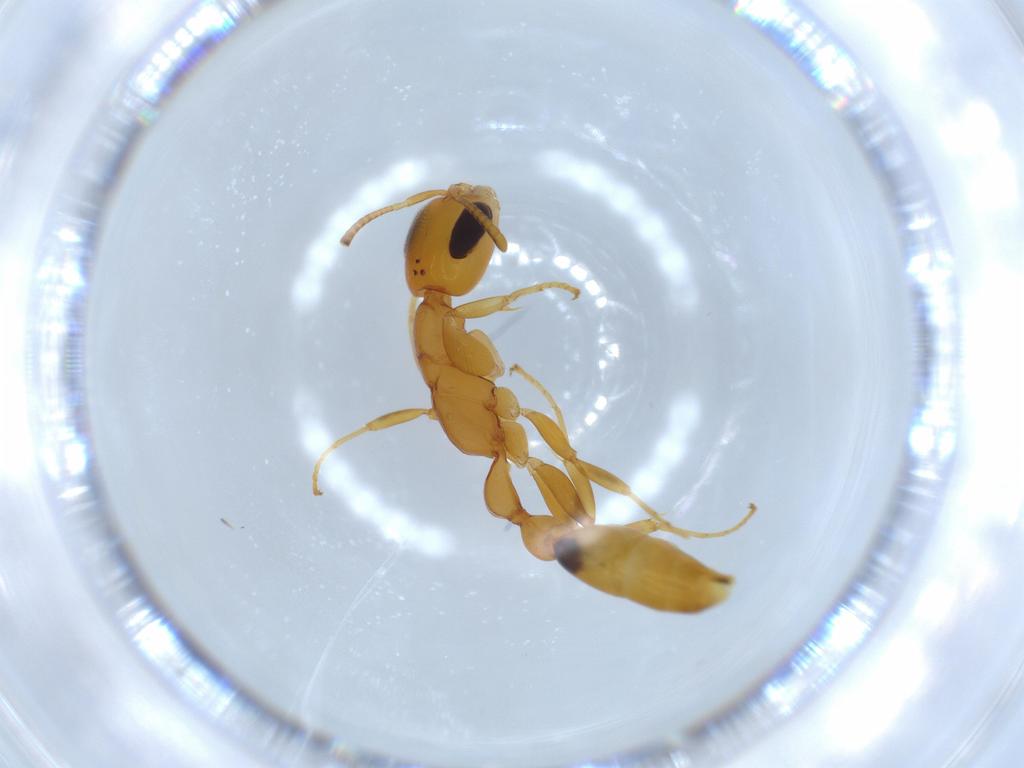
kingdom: Animalia
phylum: Arthropoda
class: Insecta
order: Hymenoptera
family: Formicidae
